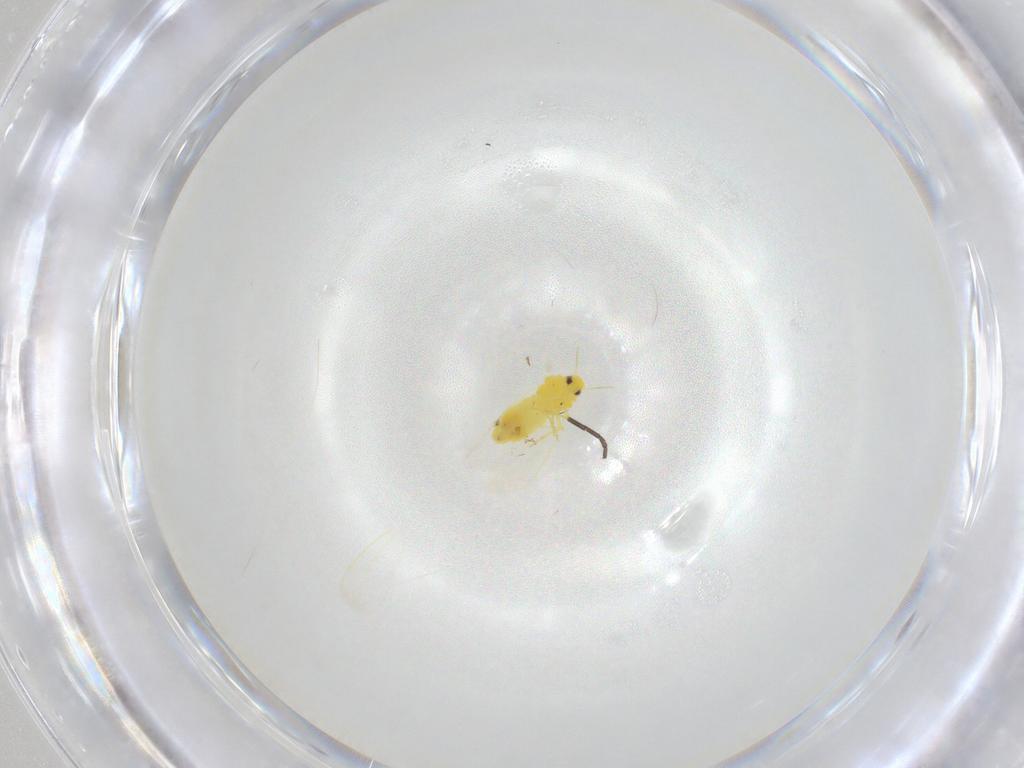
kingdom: Animalia
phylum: Arthropoda
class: Insecta
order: Hemiptera
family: Aleyrodidae
